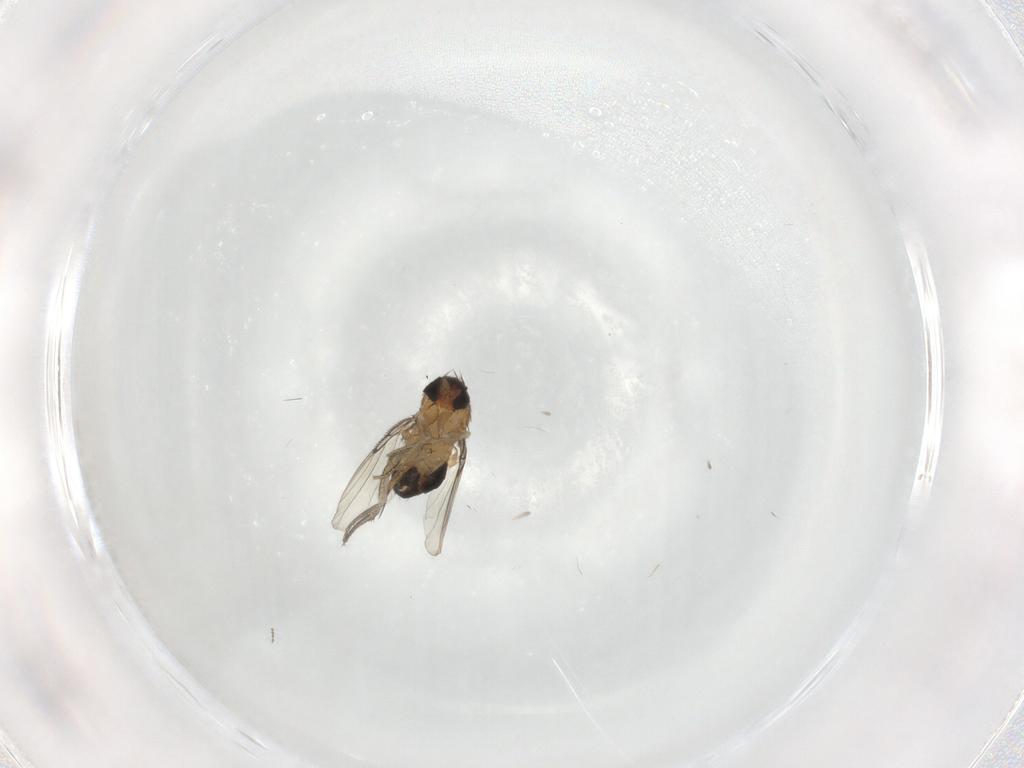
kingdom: Animalia
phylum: Arthropoda
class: Insecta
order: Diptera
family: Phoridae
